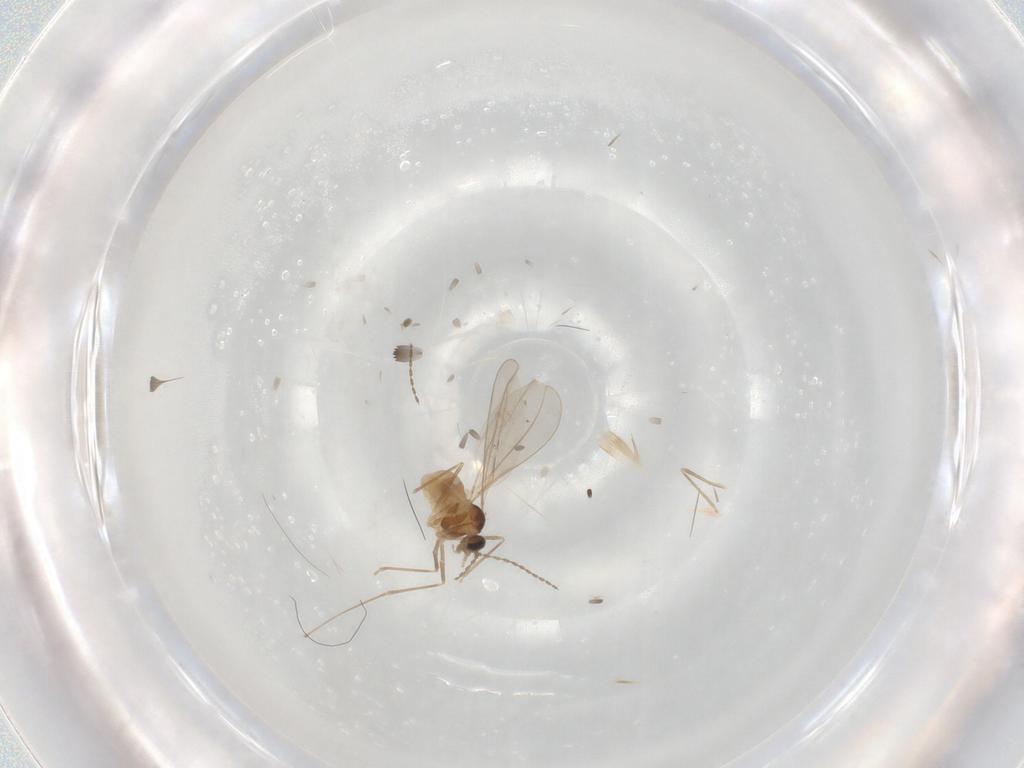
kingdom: Animalia
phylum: Arthropoda
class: Insecta
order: Diptera
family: Cecidomyiidae
